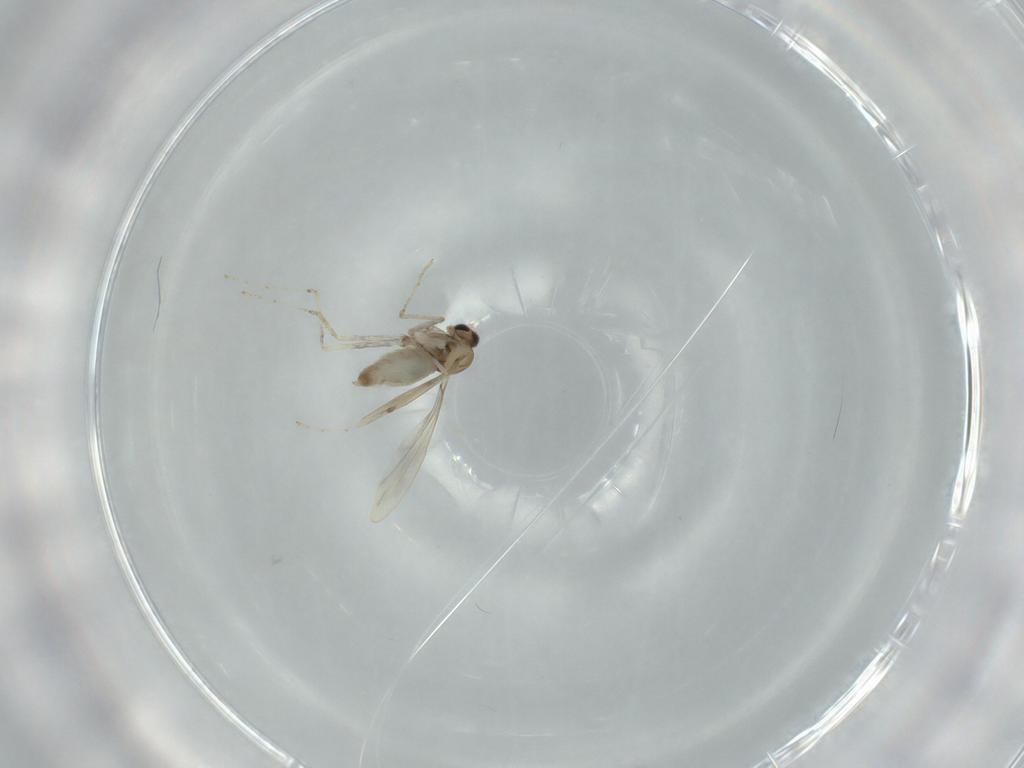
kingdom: Animalia
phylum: Arthropoda
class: Insecta
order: Diptera
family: Cecidomyiidae
